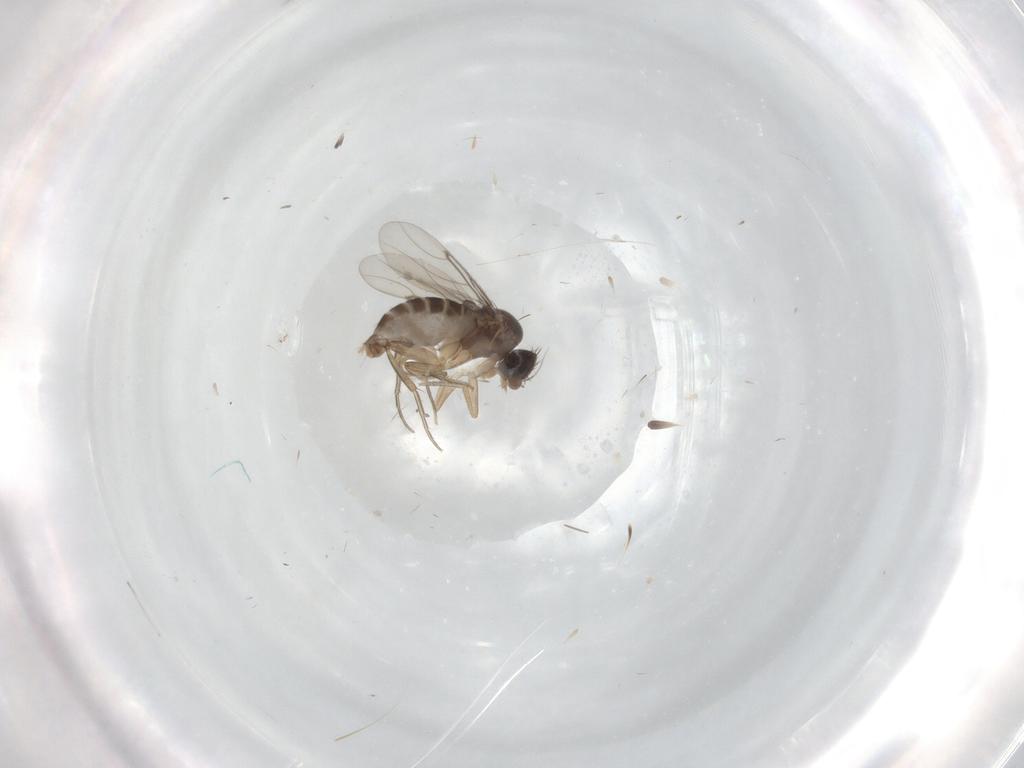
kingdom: Animalia
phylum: Arthropoda
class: Insecta
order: Diptera
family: Phoridae
